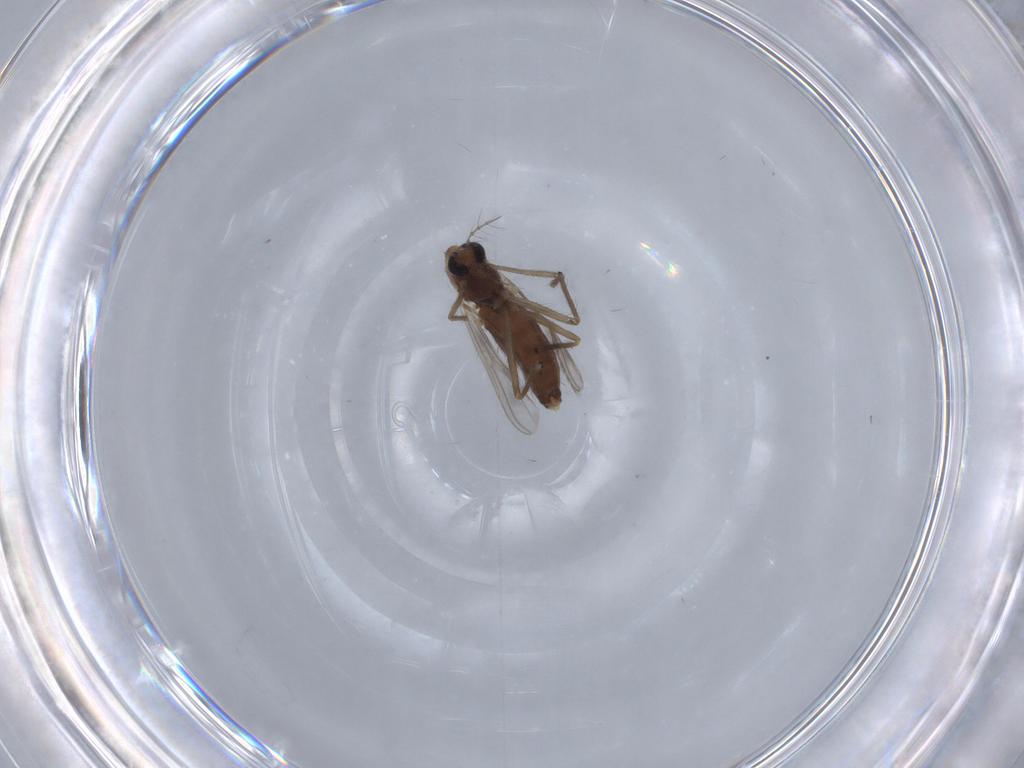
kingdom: Animalia
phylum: Arthropoda
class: Insecta
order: Diptera
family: Chironomidae
